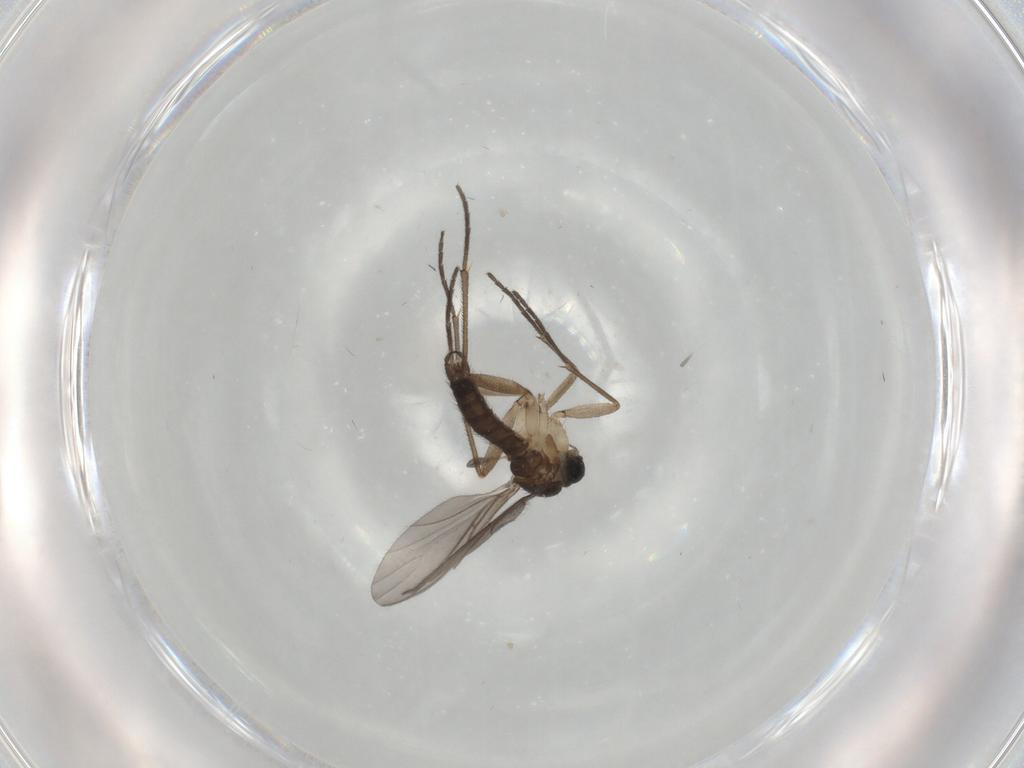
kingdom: Animalia
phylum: Arthropoda
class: Insecta
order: Diptera
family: Sciaridae
